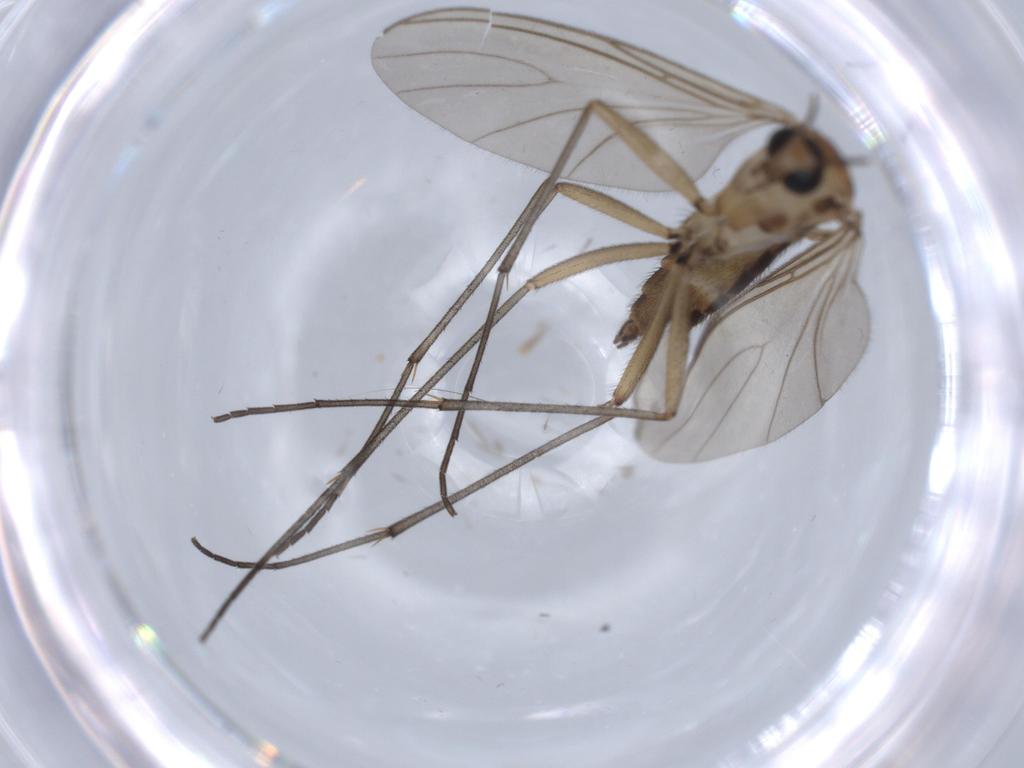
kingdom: Animalia
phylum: Arthropoda
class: Insecta
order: Diptera
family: Sciaridae
